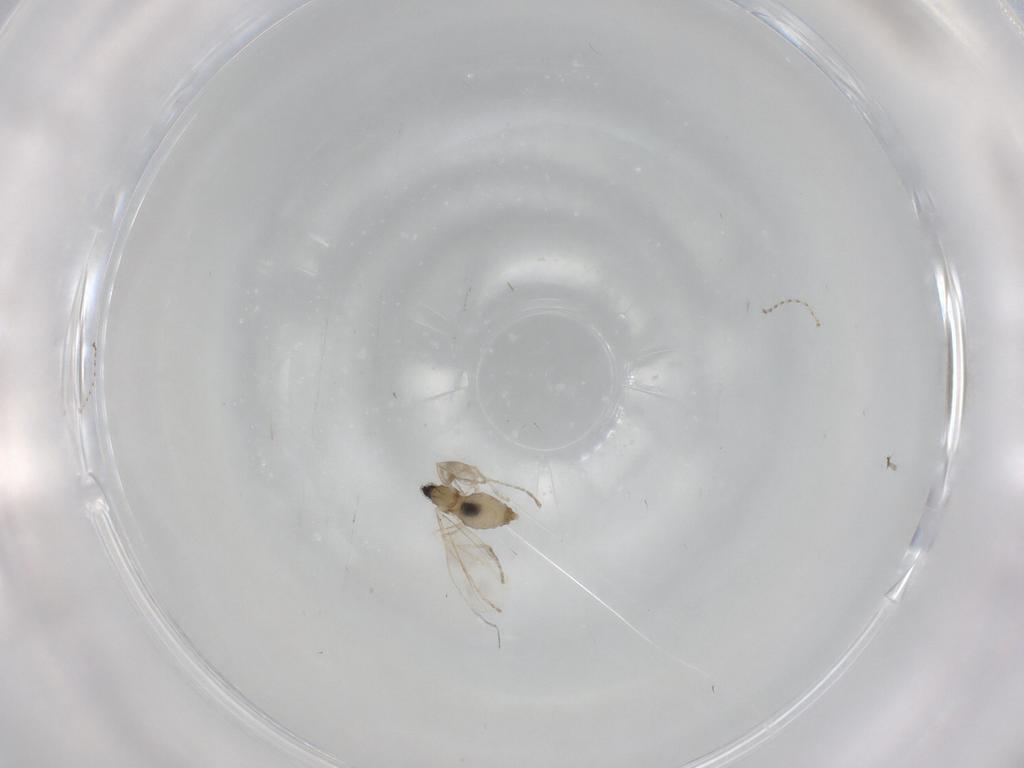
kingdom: Animalia
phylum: Arthropoda
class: Insecta
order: Diptera
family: Cecidomyiidae
